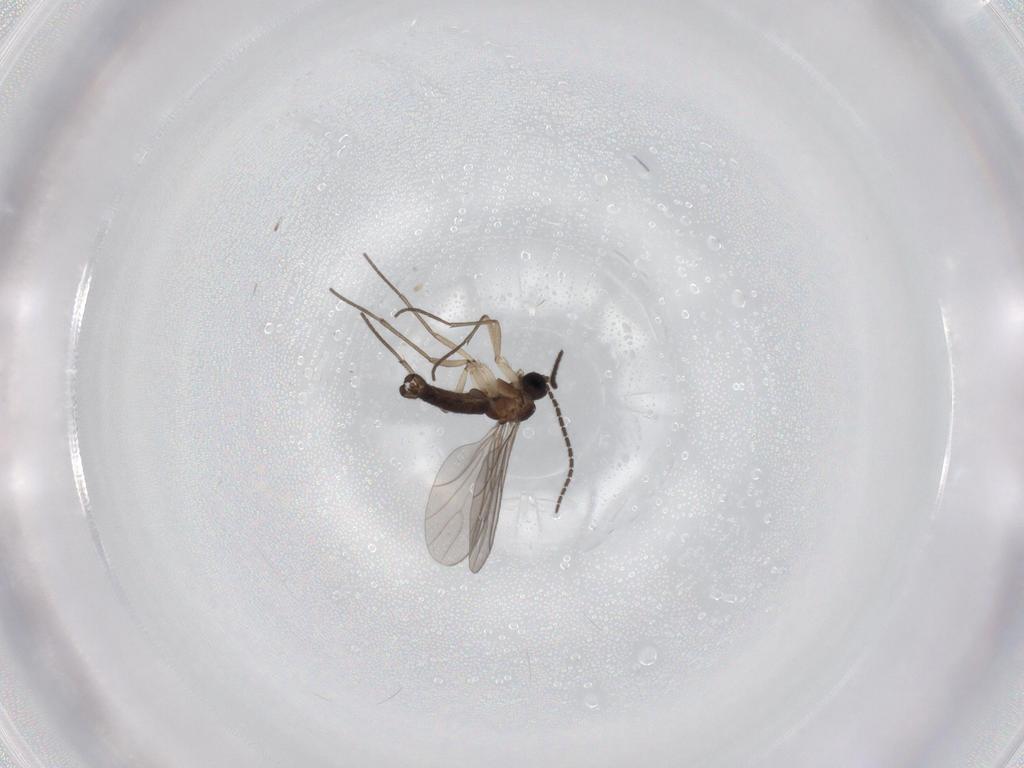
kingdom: Animalia
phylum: Arthropoda
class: Insecta
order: Diptera
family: Sciaridae
